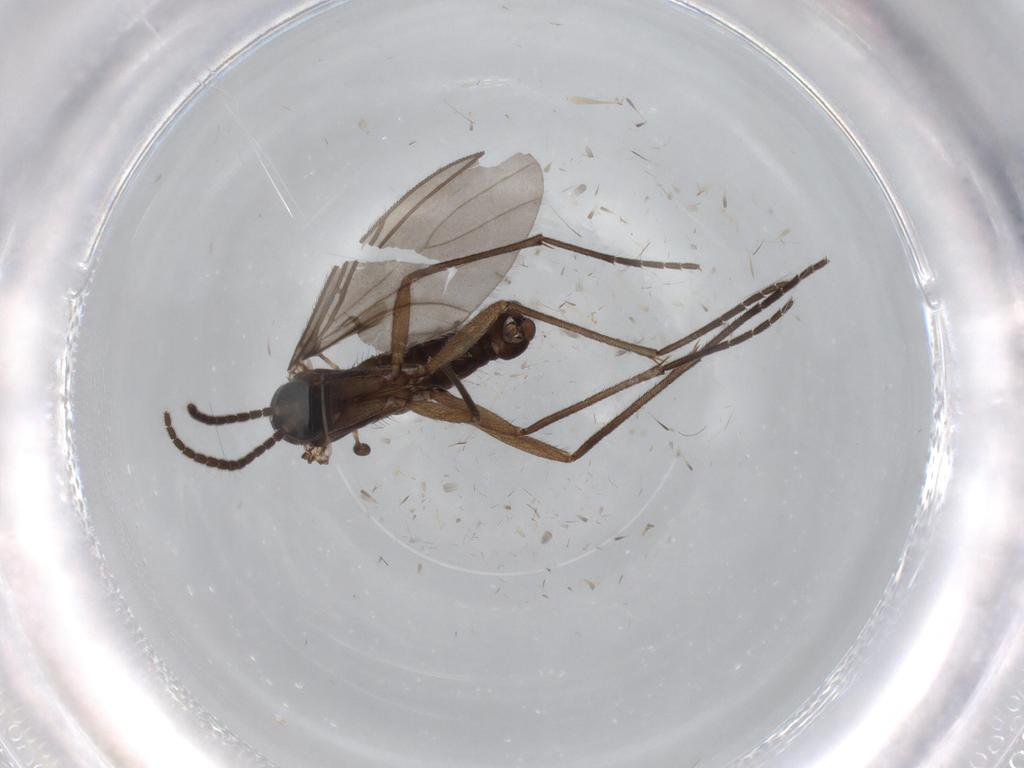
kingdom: Animalia
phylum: Arthropoda
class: Insecta
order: Diptera
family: Sciaridae
